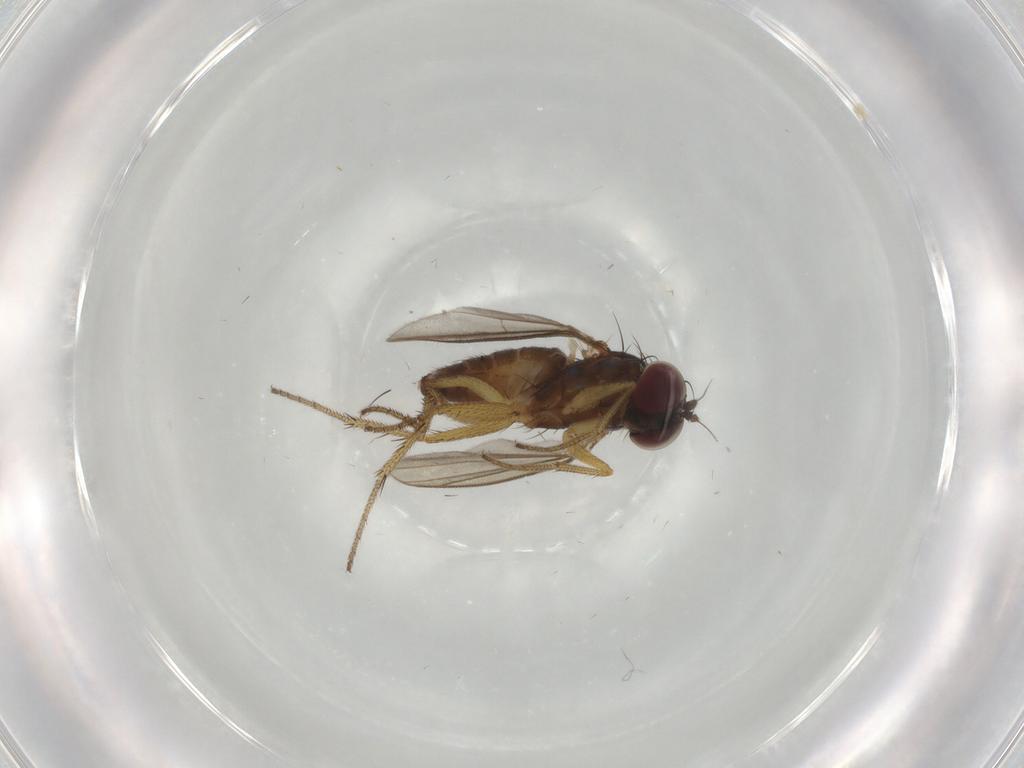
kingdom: Animalia
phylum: Arthropoda
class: Insecta
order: Diptera
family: Dolichopodidae
